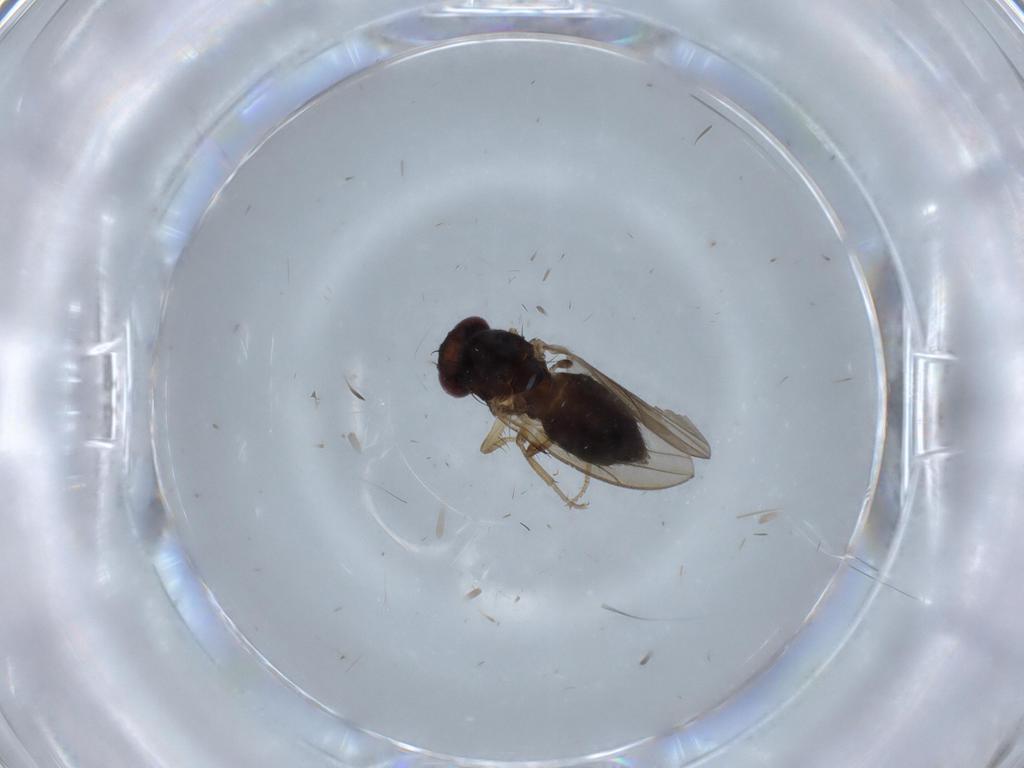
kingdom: Animalia
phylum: Arthropoda
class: Insecta
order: Diptera
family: Drosophilidae
